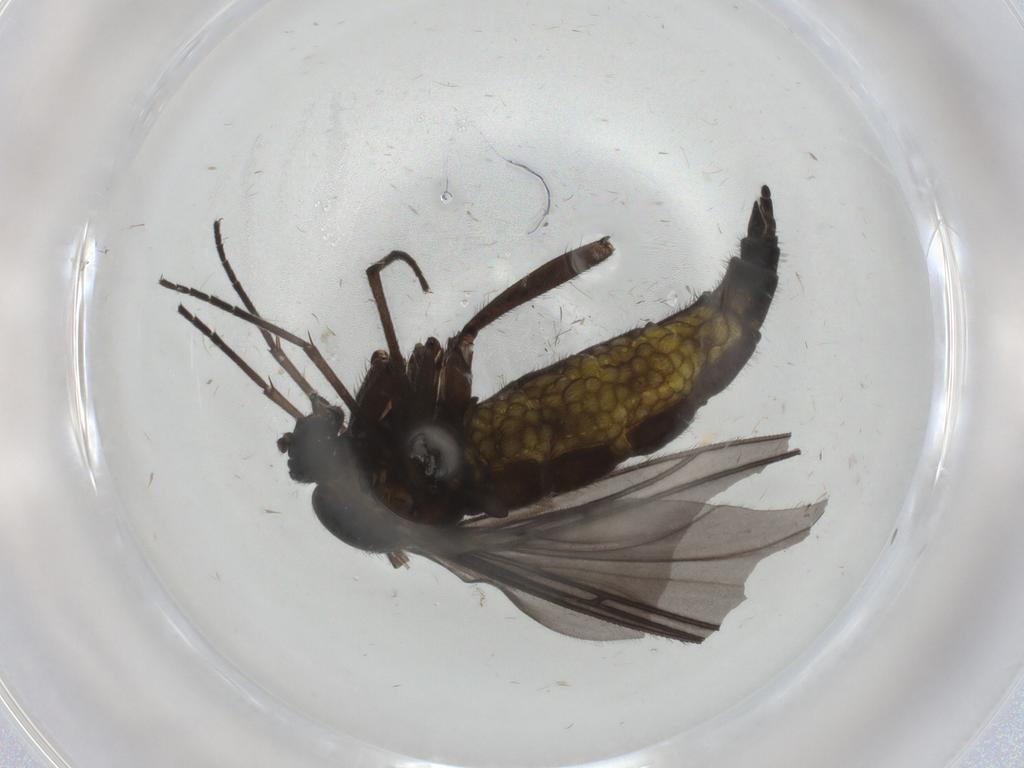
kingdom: Animalia
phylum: Arthropoda
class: Insecta
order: Diptera
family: Sciaridae
